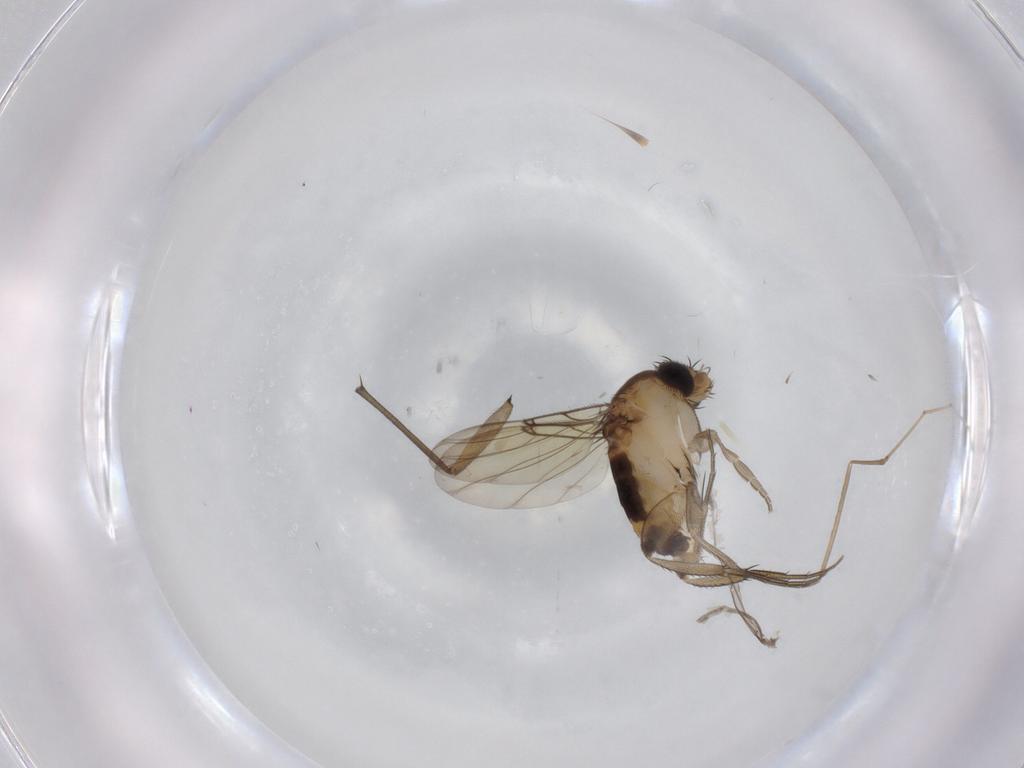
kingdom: Animalia
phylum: Arthropoda
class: Insecta
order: Diptera
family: Cecidomyiidae
